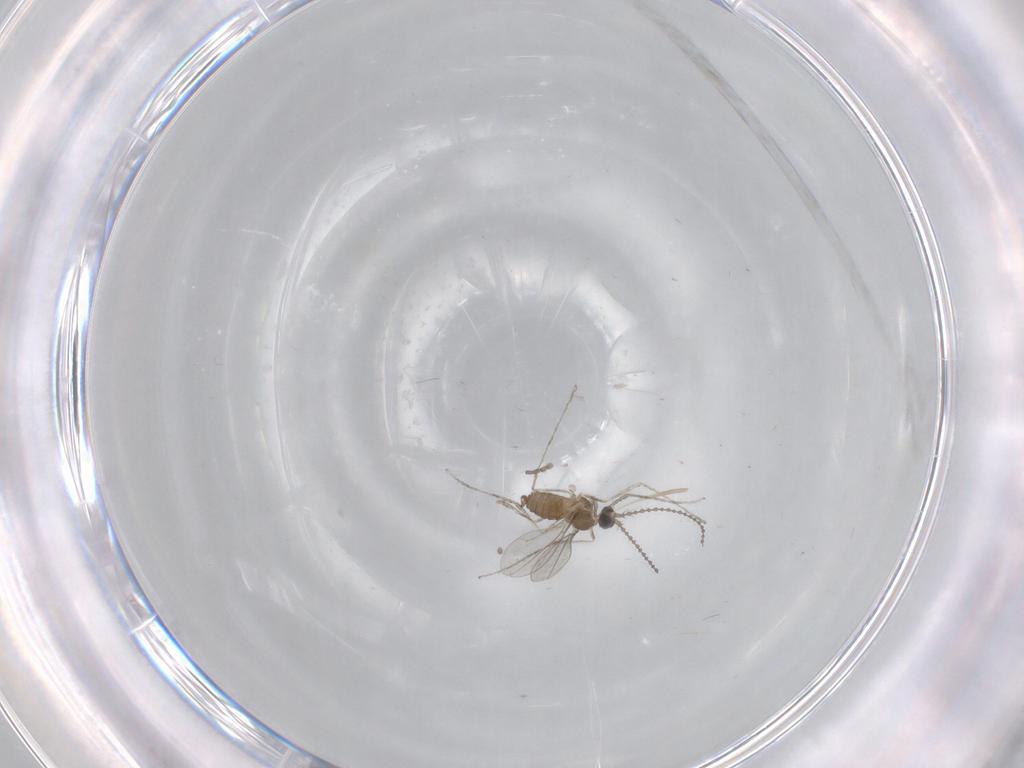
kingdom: Animalia
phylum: Arthropoda
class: Insecta
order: Diptera
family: Cecidomyiidae
